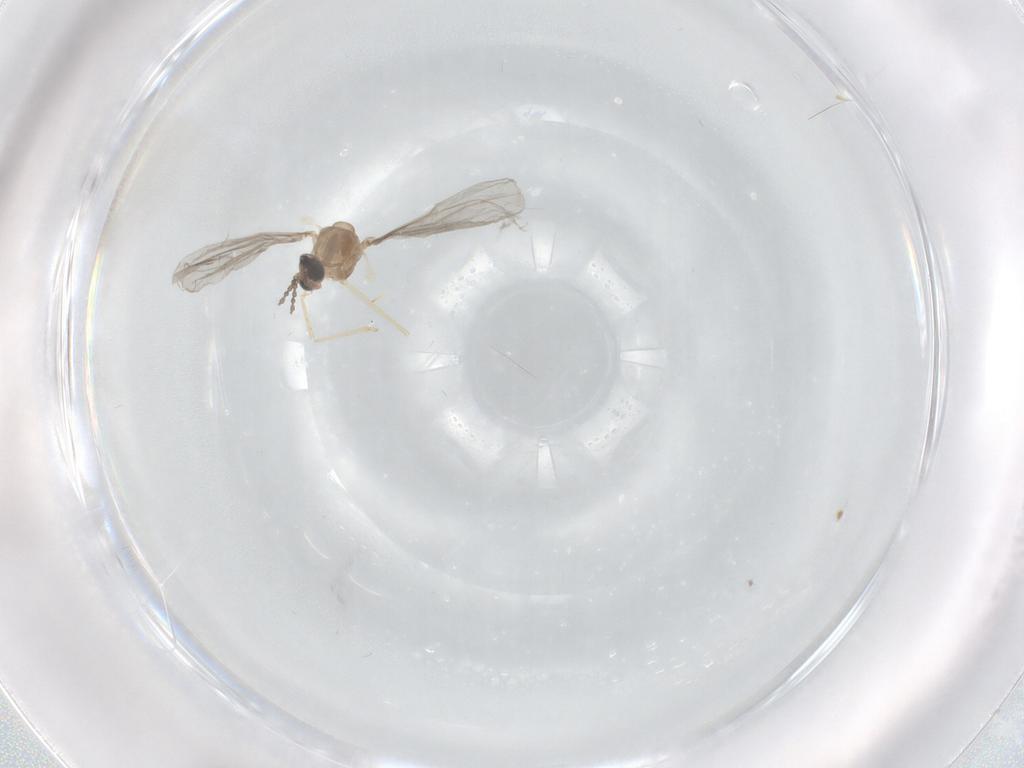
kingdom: Animalia
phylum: Arthropoda
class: Insecta
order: Diptera
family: Cecidomyiidae
